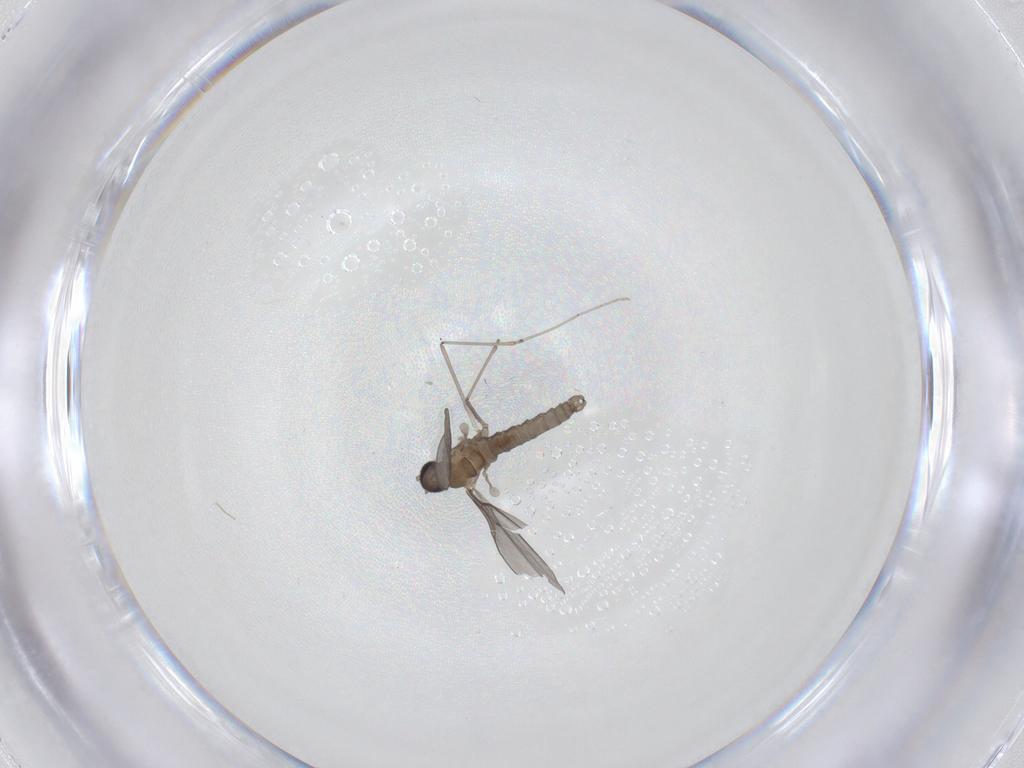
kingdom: Animalia
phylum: Arthropoda
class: Insecta
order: Diptera
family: Cecidomyiidae
